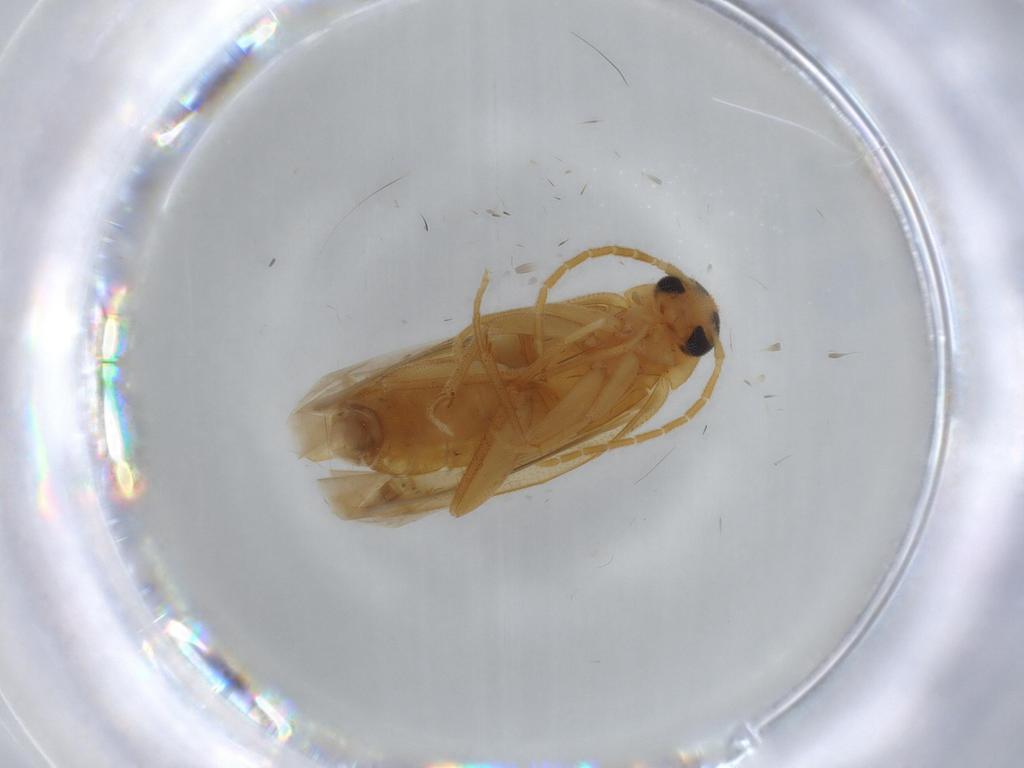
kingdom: Animalia
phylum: Arthropoda
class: Insecta
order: Coleoptera
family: Scraptiidae
